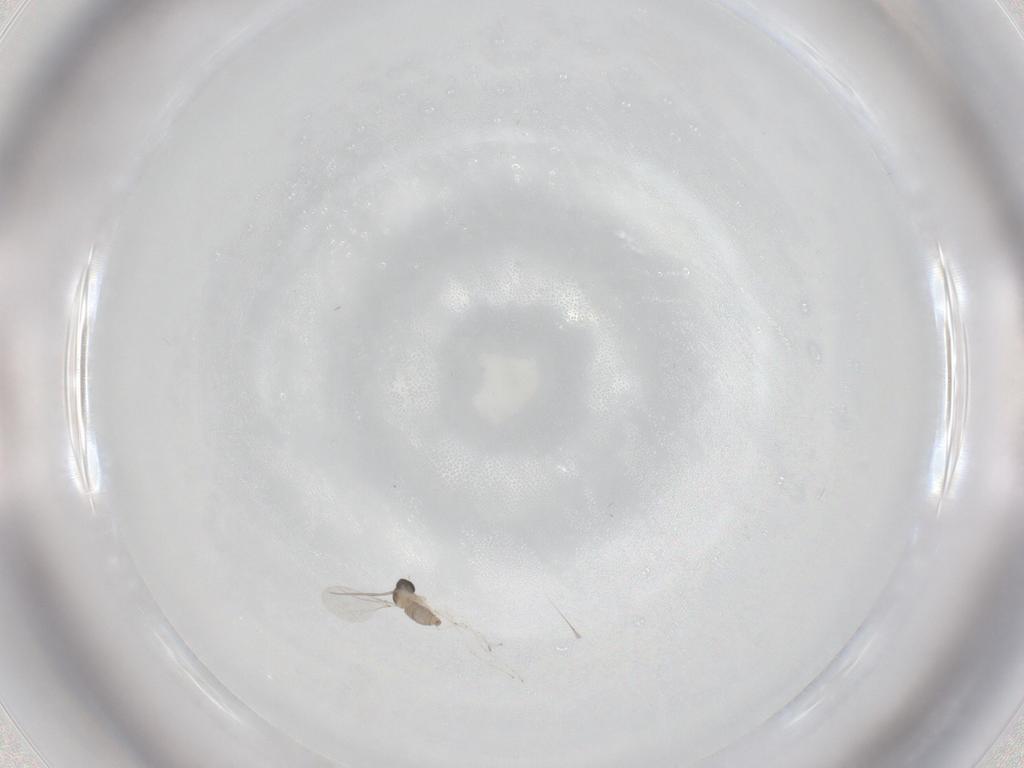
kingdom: Animalia
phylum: Arthropoda
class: Insecta
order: Diptera
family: Cecidomyiidae
